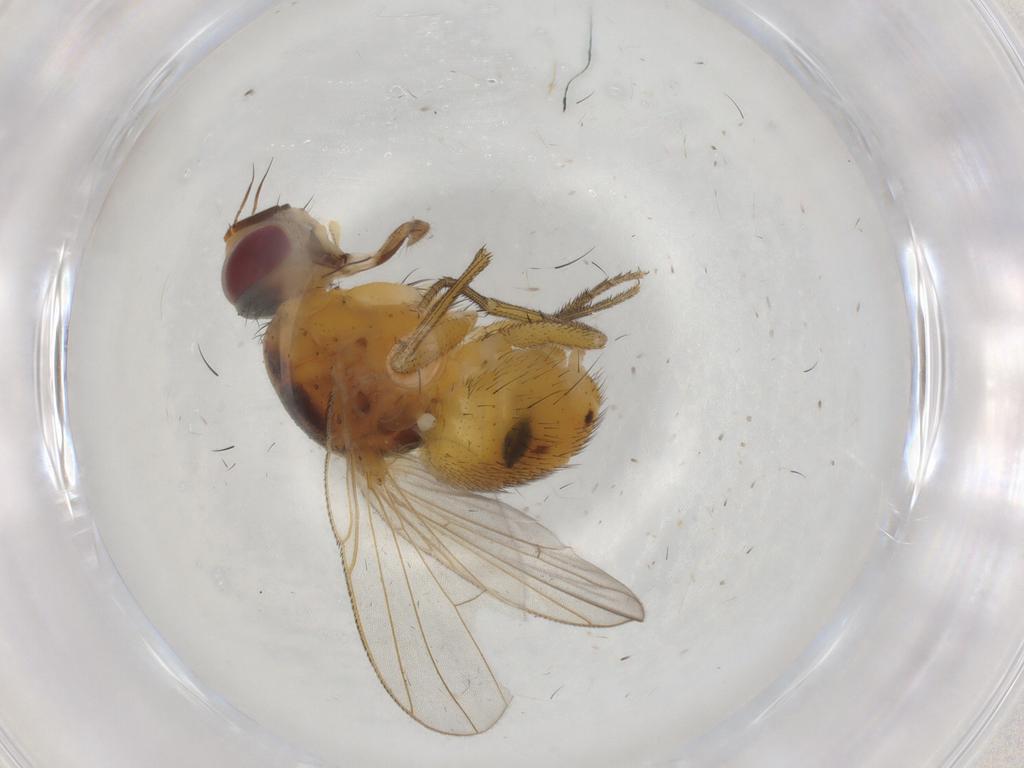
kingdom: Animalia
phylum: Arthropoda
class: Insecta
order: Diptera
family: Muscidae
